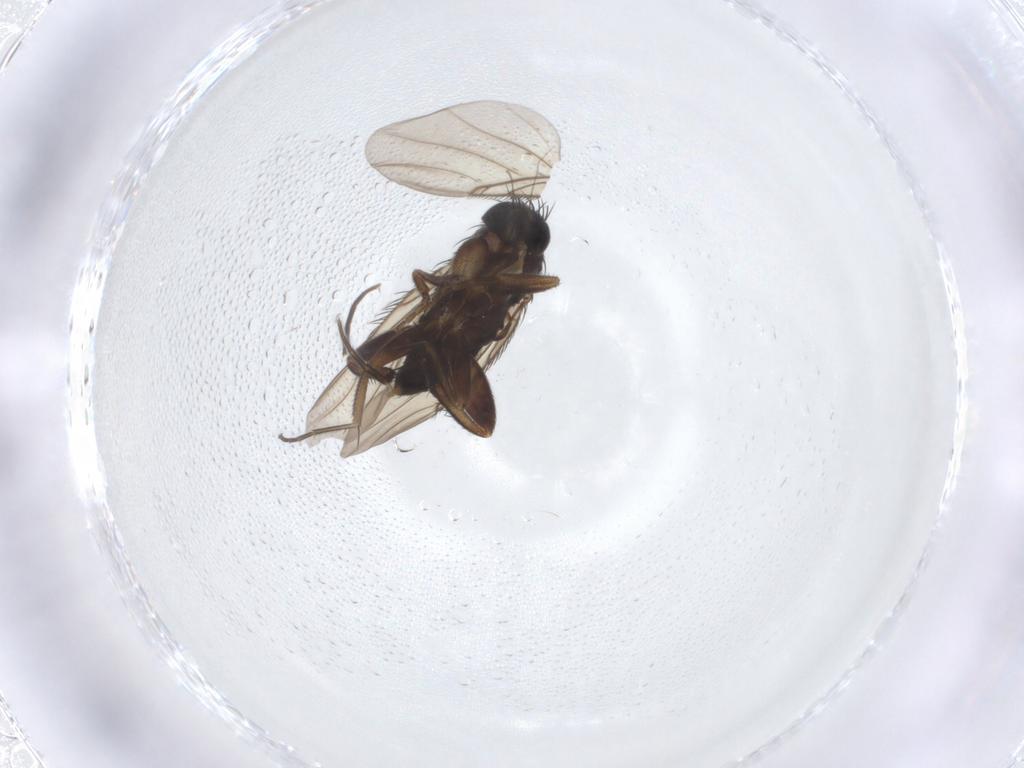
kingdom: Animalia
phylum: Arthropoda
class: Insecta
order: Diptera
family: Phoridae
